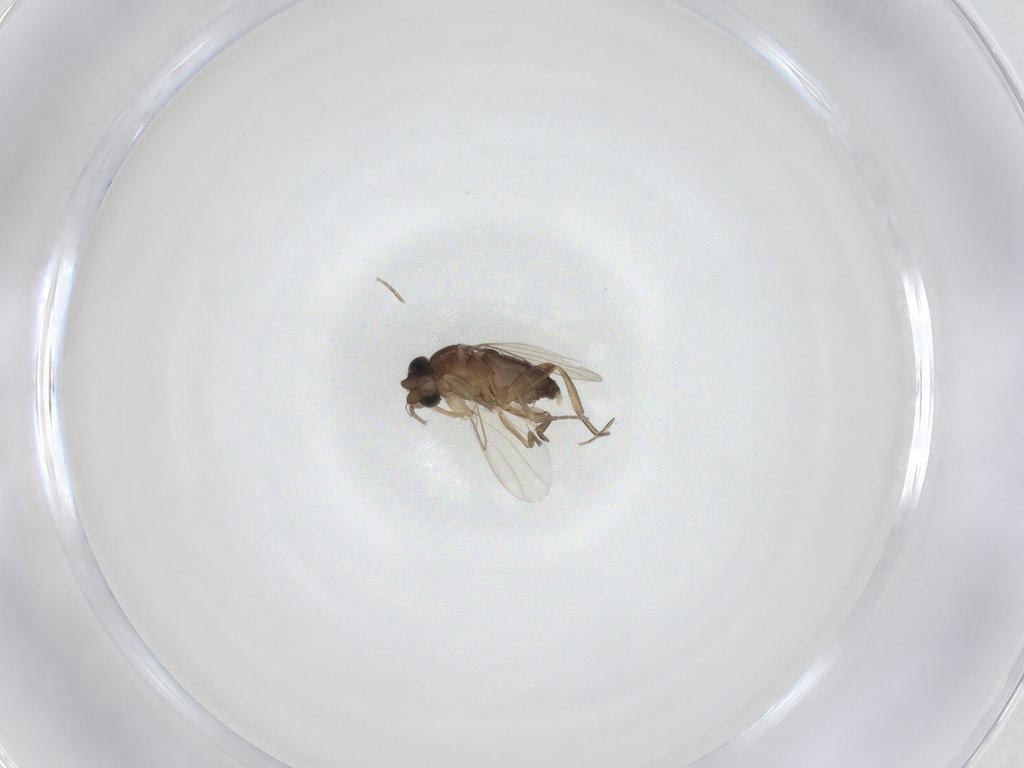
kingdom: Animalia
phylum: Arthropoda
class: Insecta
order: Diptera
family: Phoridae
